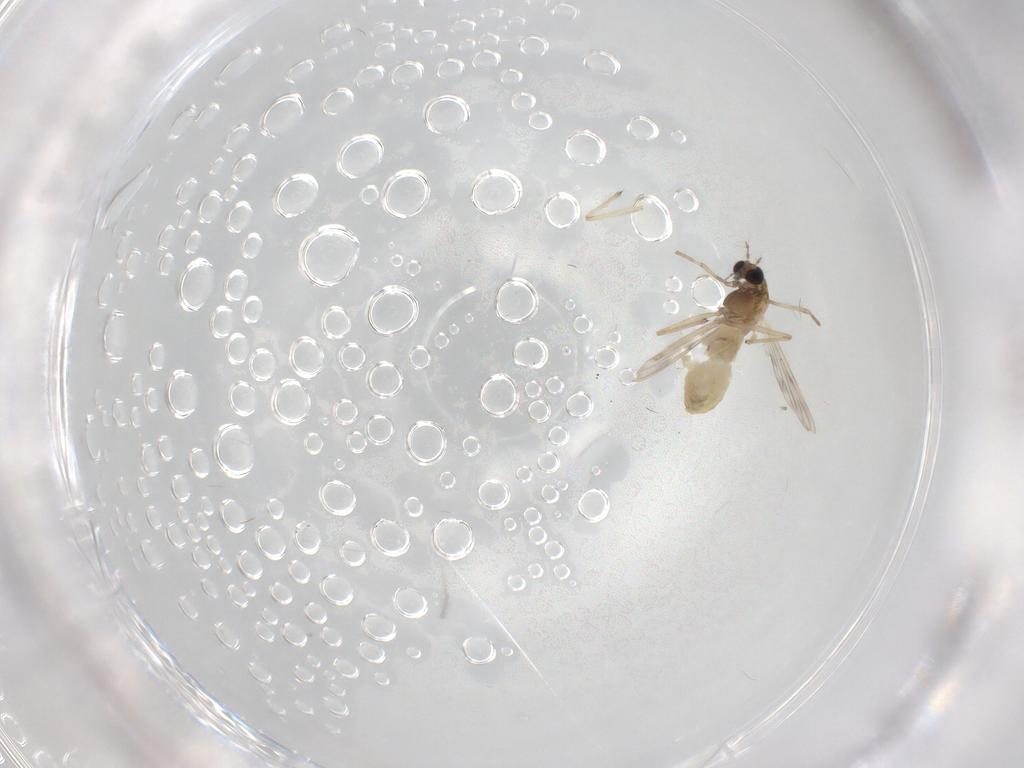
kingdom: Animalia
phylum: Arthropoda
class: Insecta
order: Diptera
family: Chironomidae
